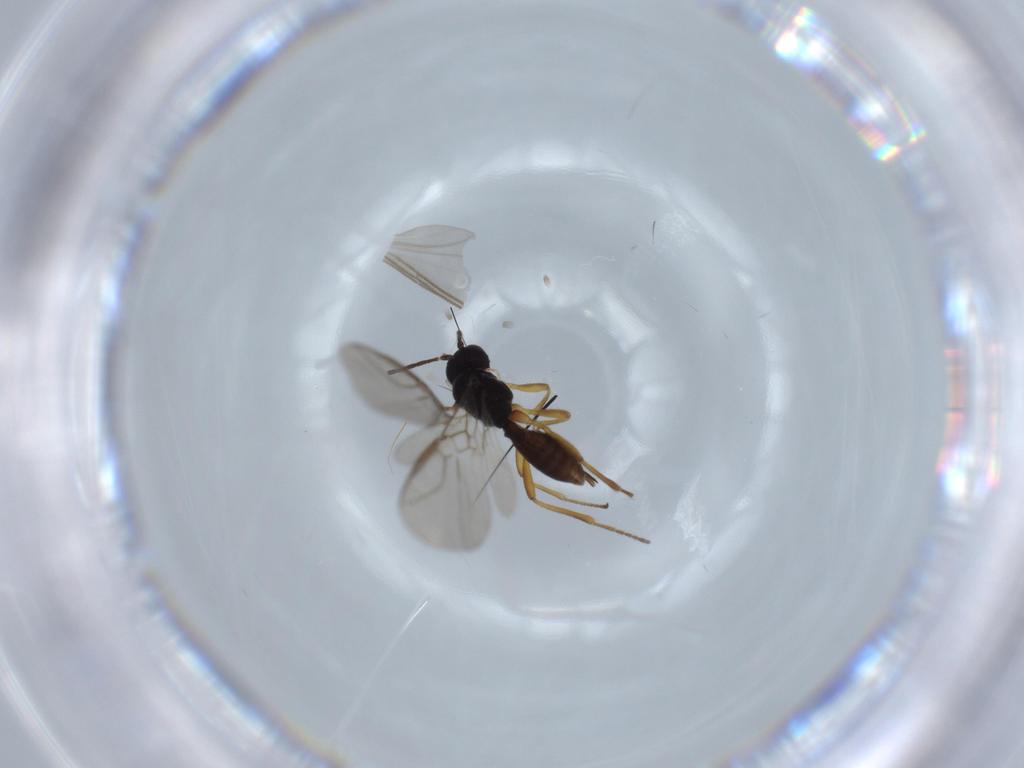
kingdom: Animalia
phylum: Arthropoda
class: Insecta
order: Hymenoptera
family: Braconidae
